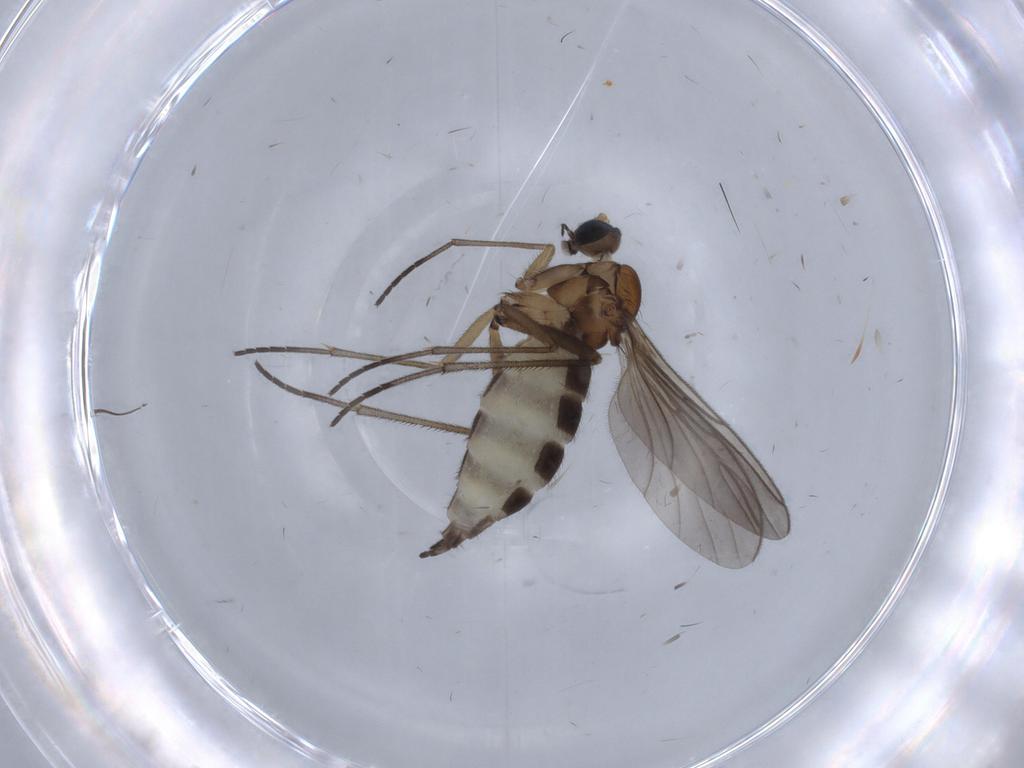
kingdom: Animalia
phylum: Arthropoda
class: Insecta
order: Diptera
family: Sciaridae
